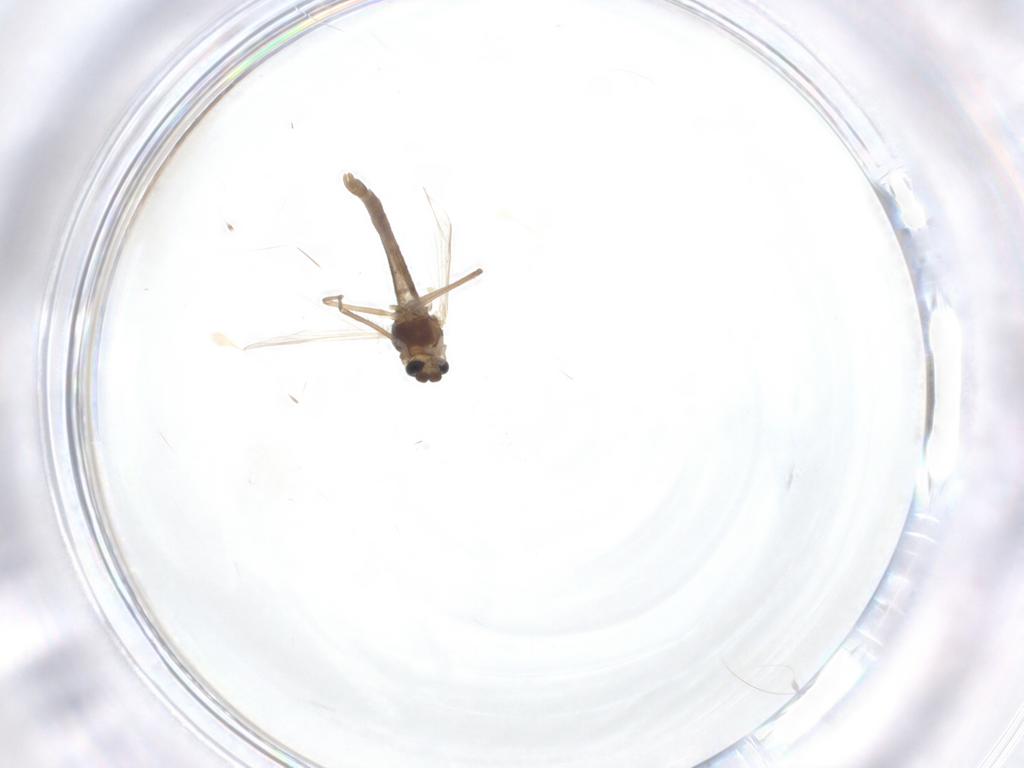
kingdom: Animalia
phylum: Arthropoda
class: Insecta
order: Diptera
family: Chironomidae
